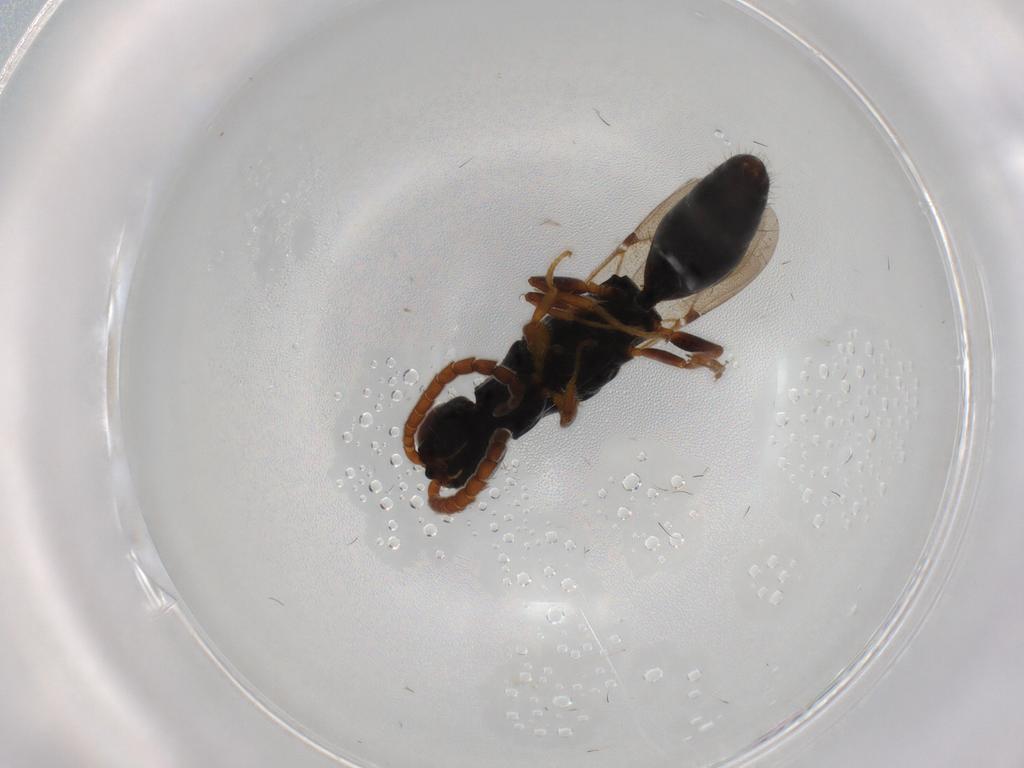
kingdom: Animalia
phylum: Arthropoda
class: Insecta
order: Hymenoptera
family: Bethylidae
